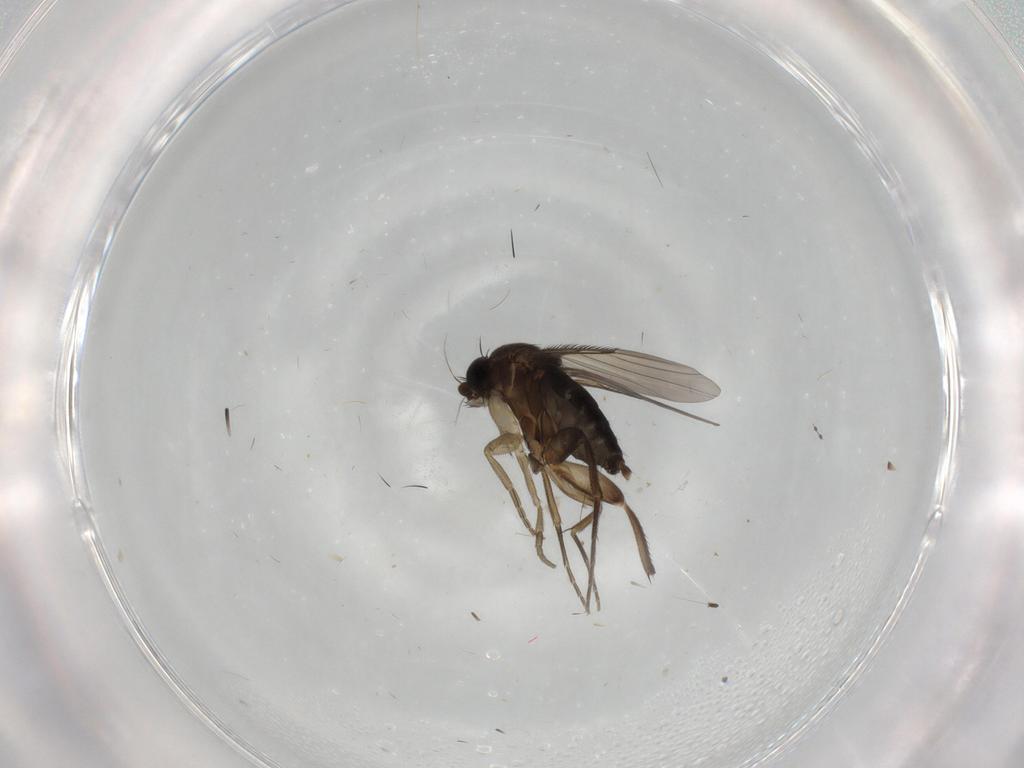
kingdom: Animalia
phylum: Arthropoda
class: Insecta
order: Diptera
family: Phoridae
